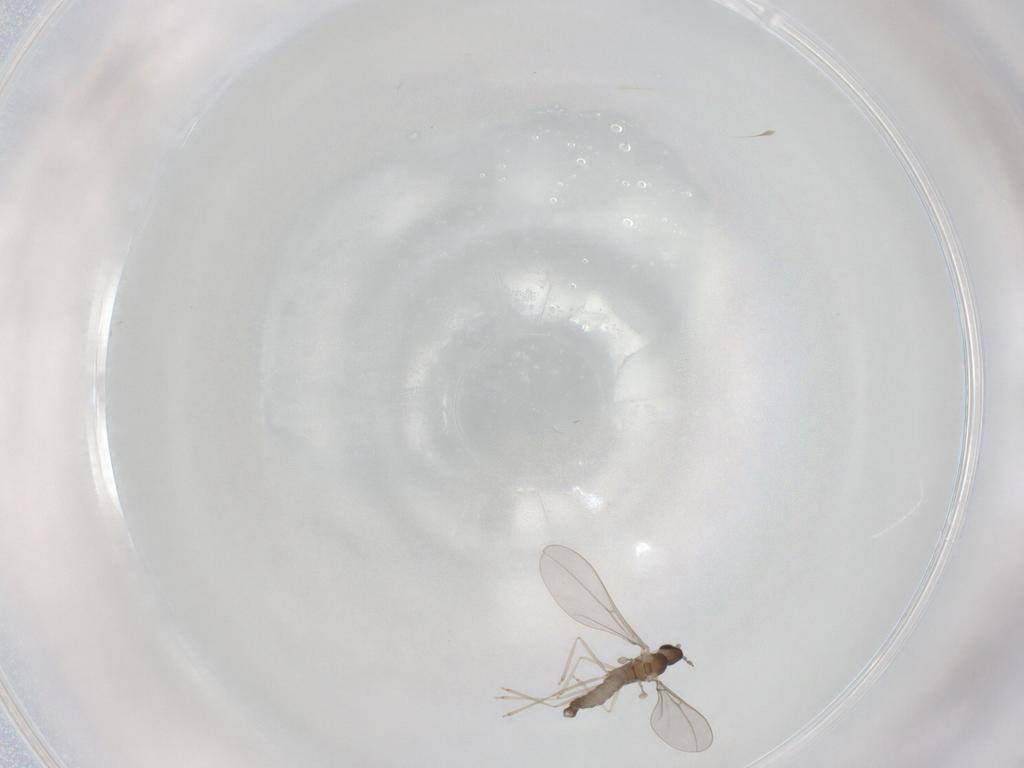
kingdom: Animalia
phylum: Arthropoda
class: Insecta
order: Diptera
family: Cecidomyiidae
